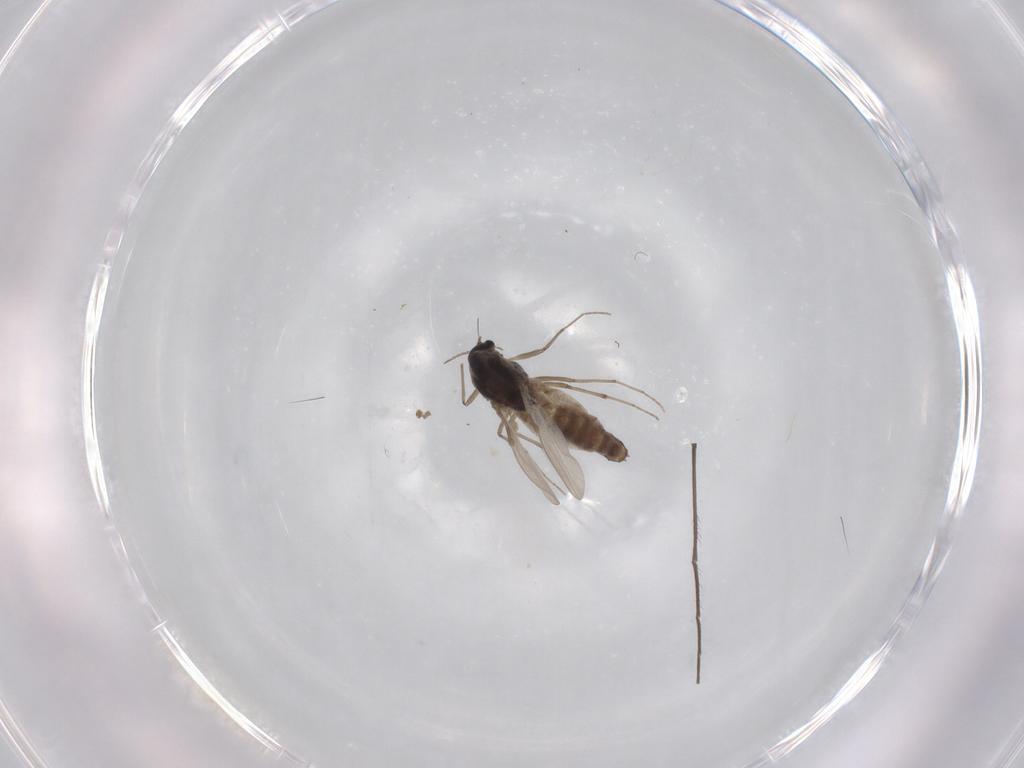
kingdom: Animalia
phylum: Arthropoda
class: Insecta
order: Diptera
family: Chironomidae
